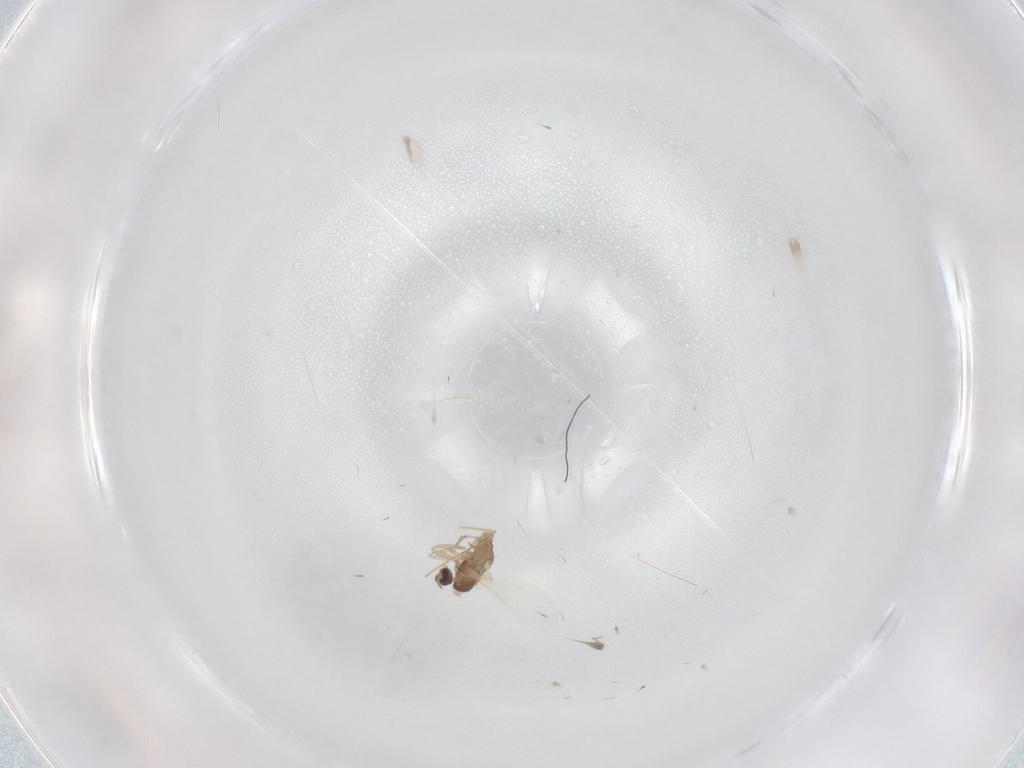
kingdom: Animalia
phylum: Arthropoda
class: Insecta
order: Diptera
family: Cecidomyiidae
